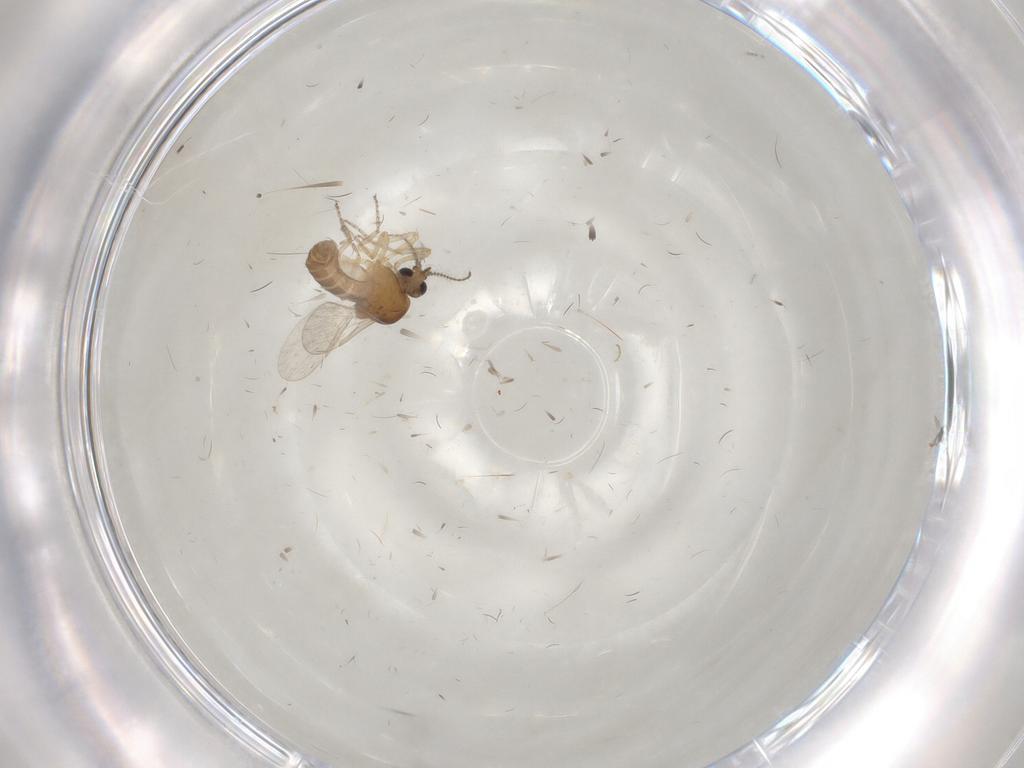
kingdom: Animalia
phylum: Arthropoda
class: Insecta
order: Diptera
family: Ceratopogonidae
